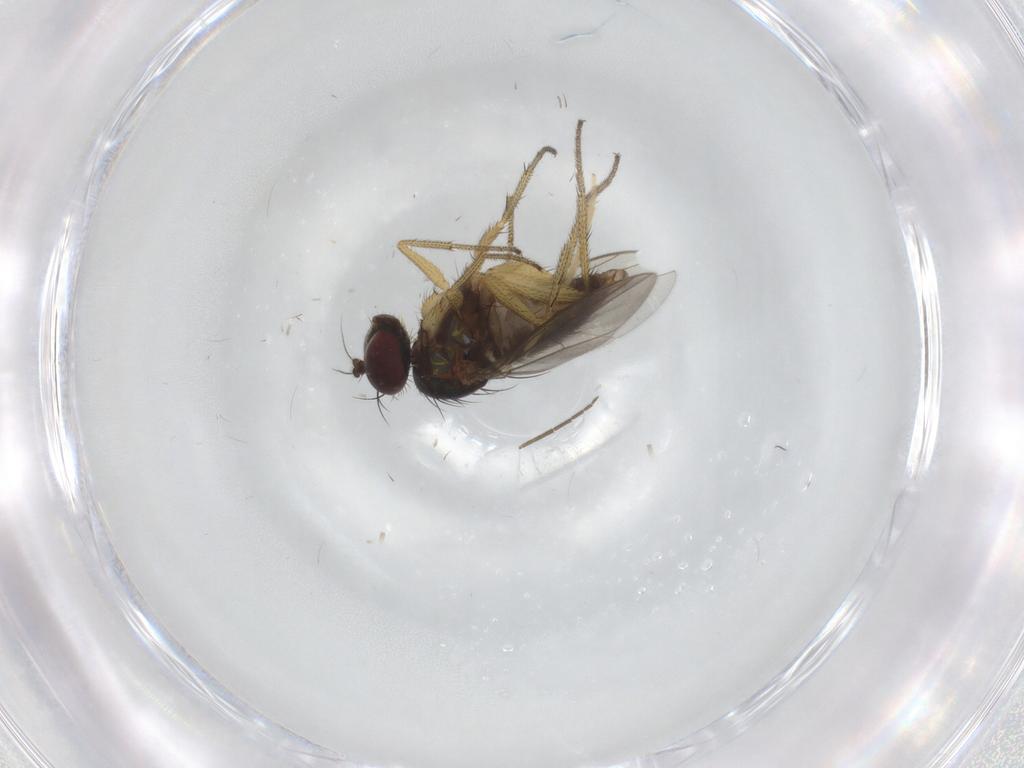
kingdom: Animalia
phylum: Arthropoda
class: Insecta
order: Diptera
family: Chironomidae
